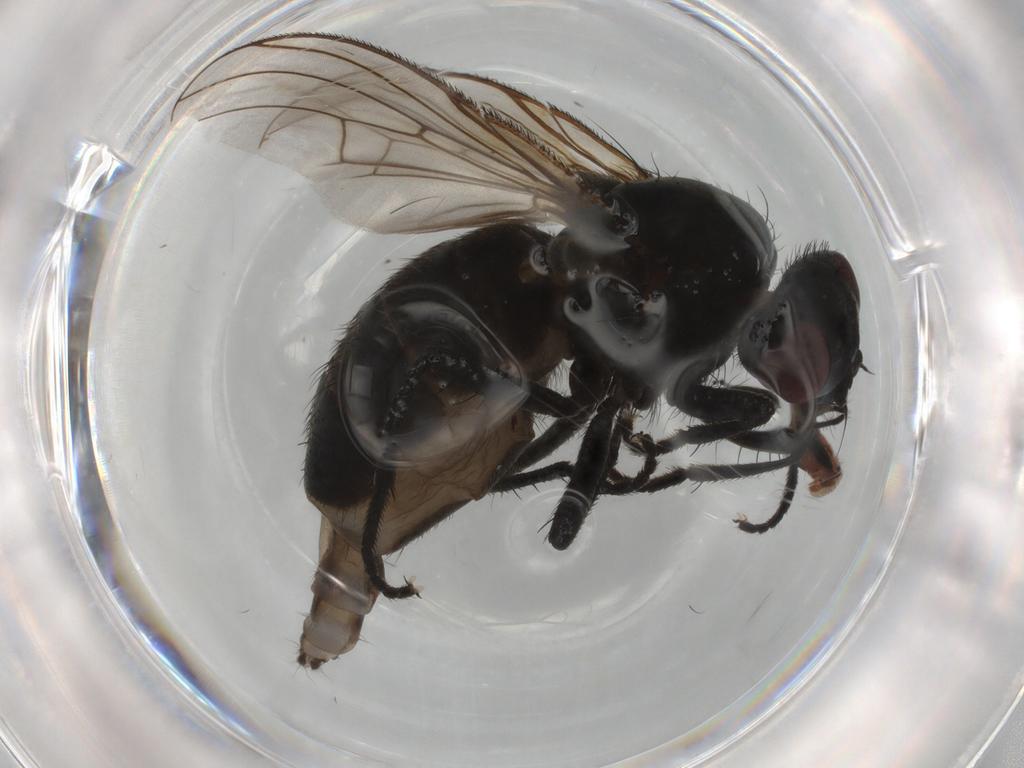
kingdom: Animalia
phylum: Arthropoda
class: Insecta
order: Diptera
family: Muscidae
